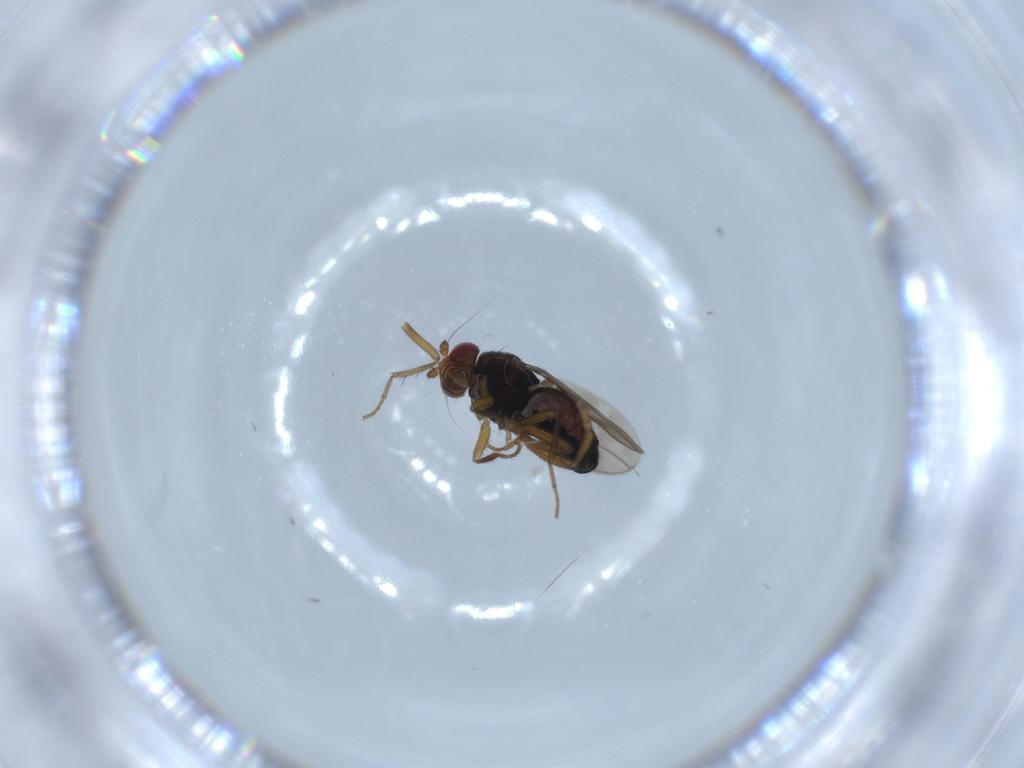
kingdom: Animalia
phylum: Arthropoda
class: Insecta
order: Diptera
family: Sphaeroceridae
